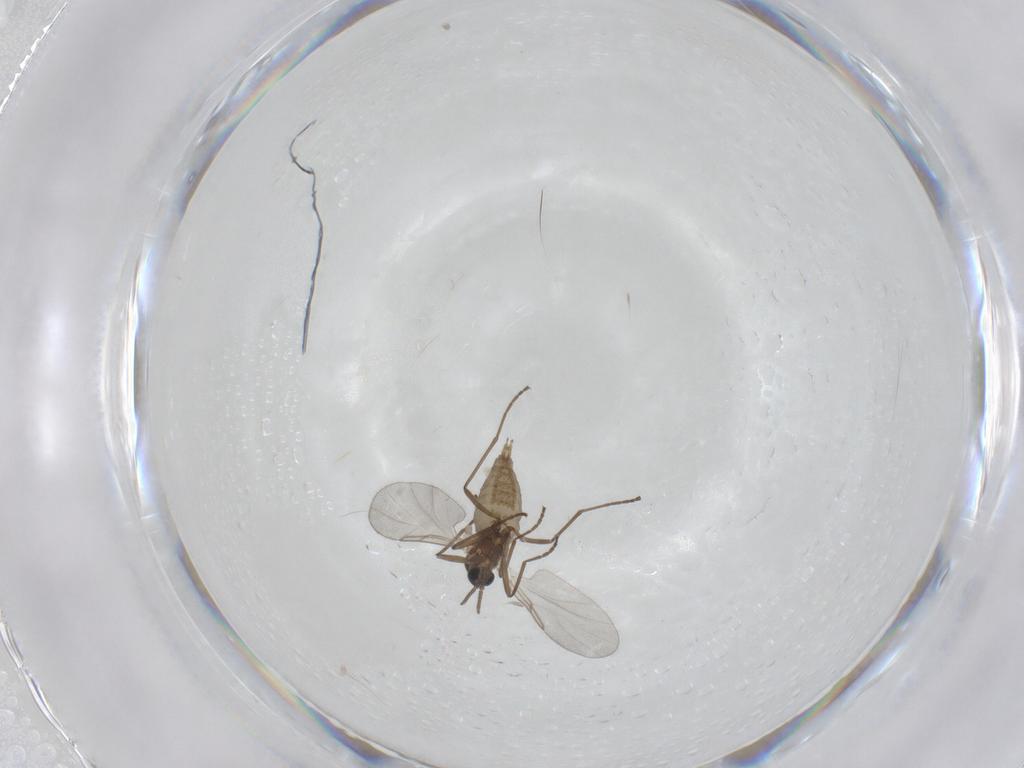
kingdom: Animalia
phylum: Arthropoda
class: Insecta
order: Diptera
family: Cecidomyiidae
